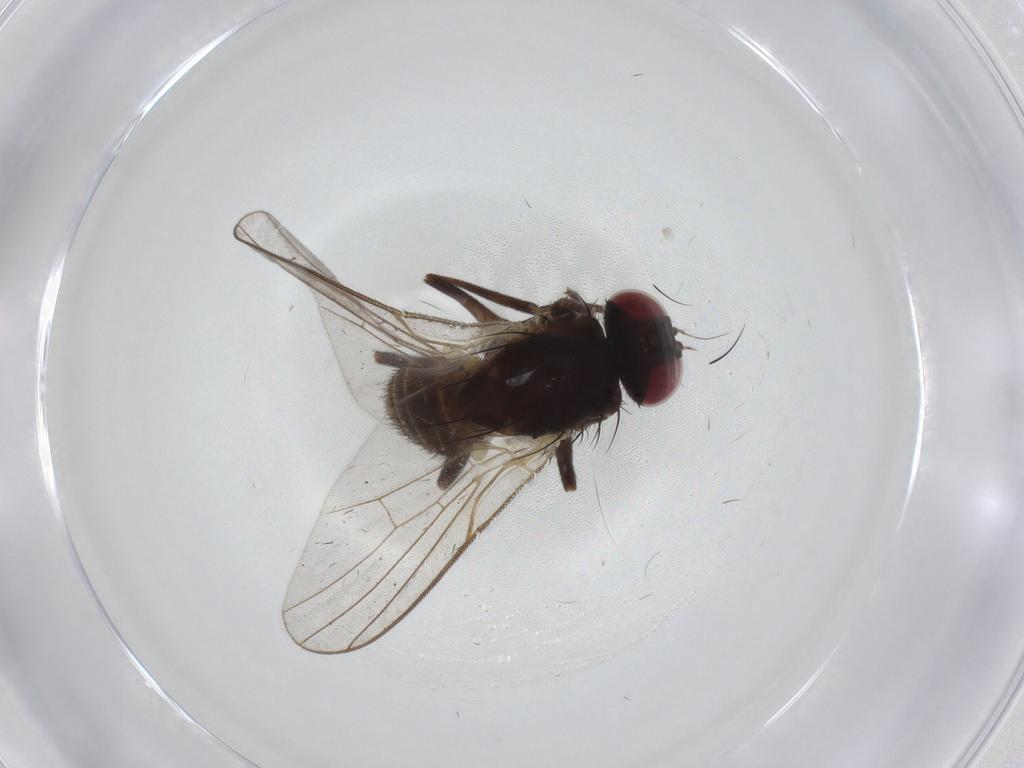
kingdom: Animalia
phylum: Arthropoda
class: Insecta
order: Diptera
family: Agromyzidae
